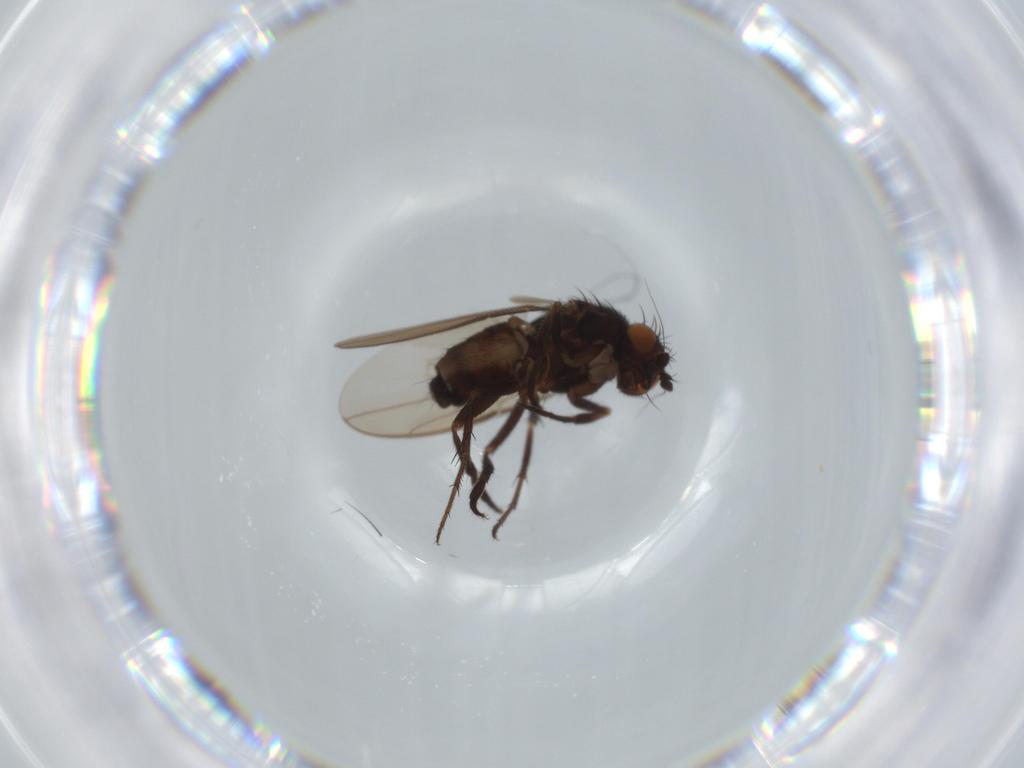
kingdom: Animalia
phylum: Arthropoda
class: Insecta
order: Diptera
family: Sphaeroceridae
